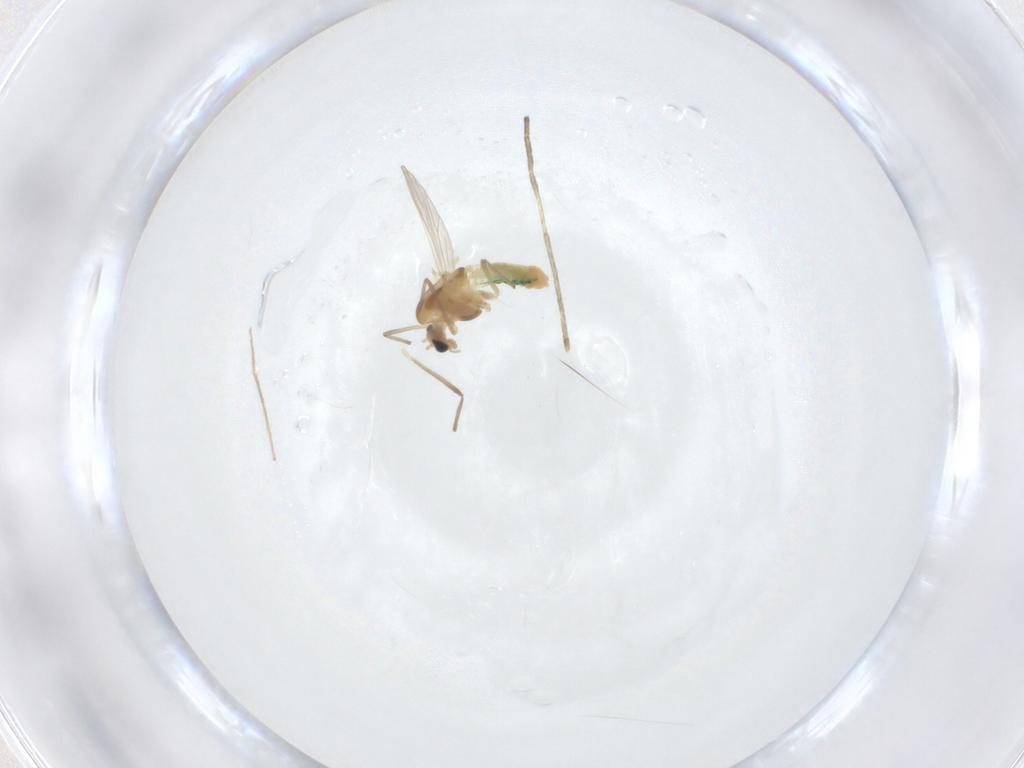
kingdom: Animalia
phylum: Arthropoda
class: Insecta
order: Diptera
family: Chironomidae
